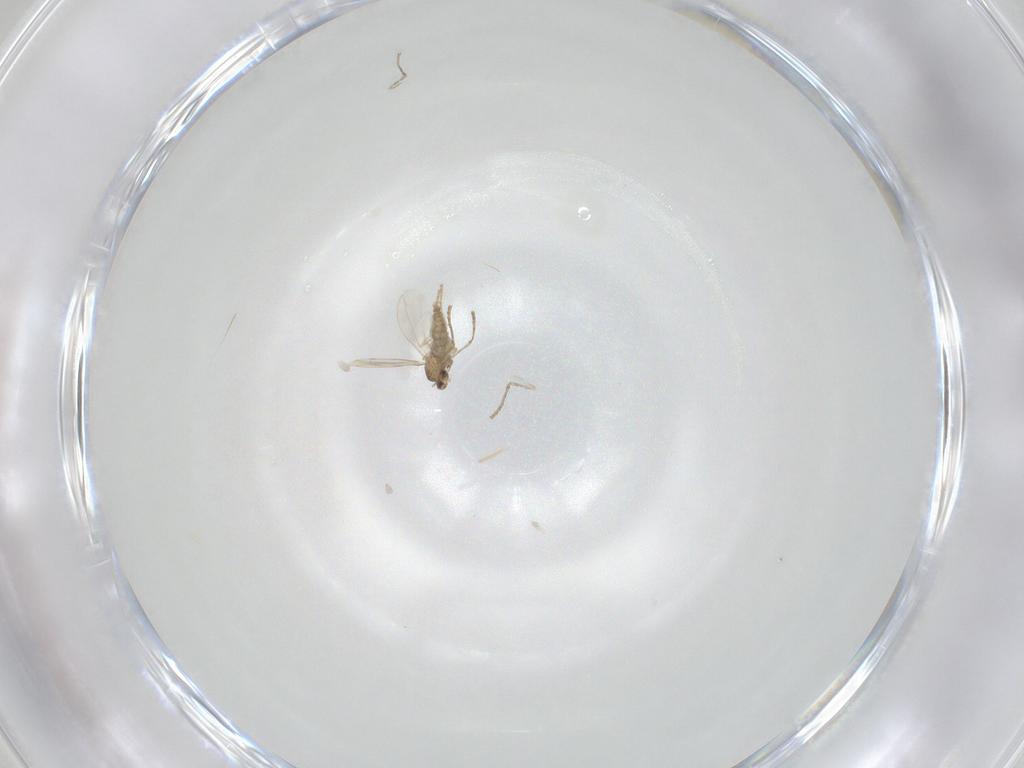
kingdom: Animalia
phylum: Arthropoda
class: Insecta
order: Diptera
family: Cecidomyiidae
